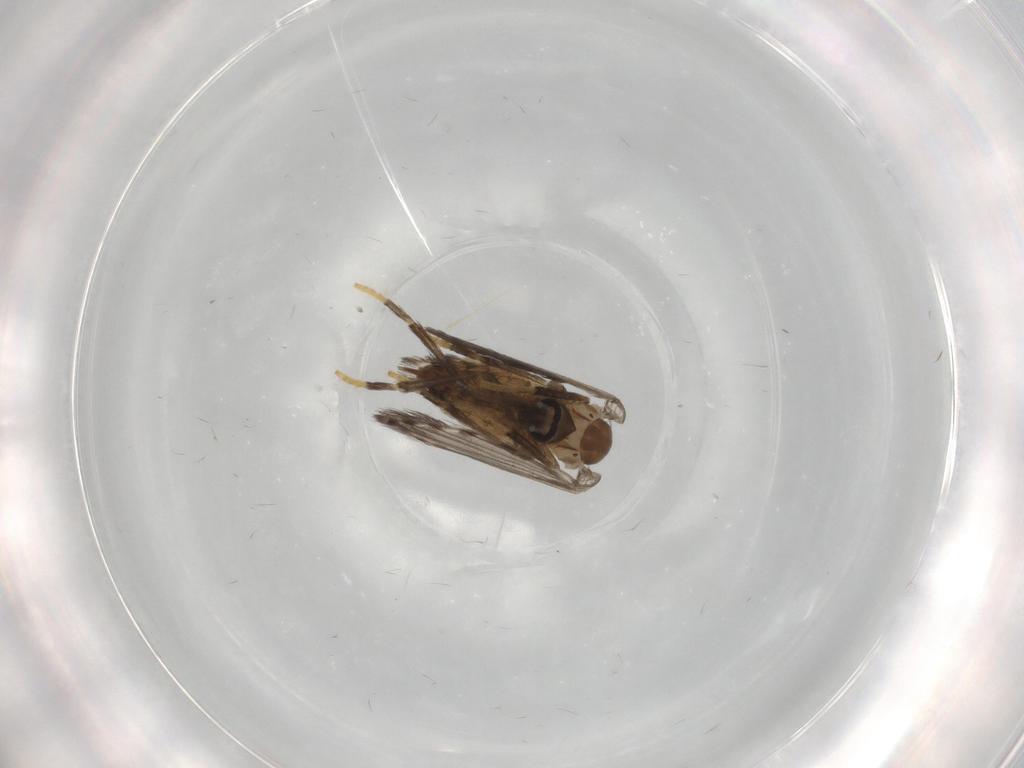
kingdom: Animalia
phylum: Arthropoda
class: Insecta
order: Diptera
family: Psychodidae
